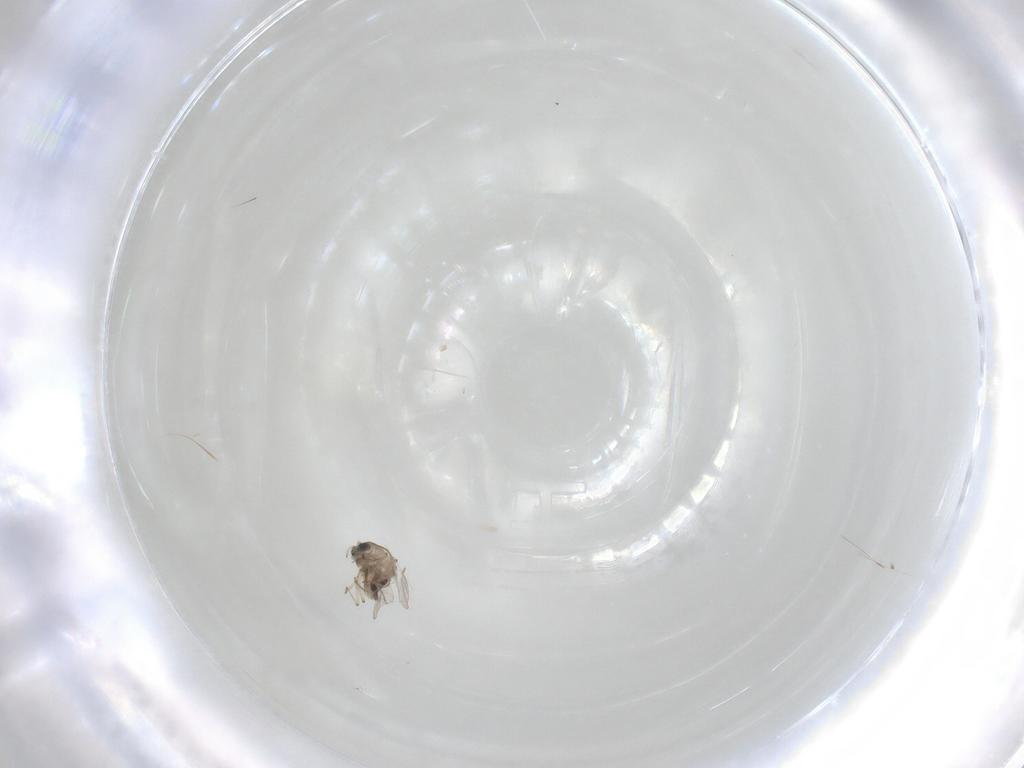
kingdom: Animalia
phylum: Arthropoda
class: Insecta
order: Diptera
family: Chironomidae
